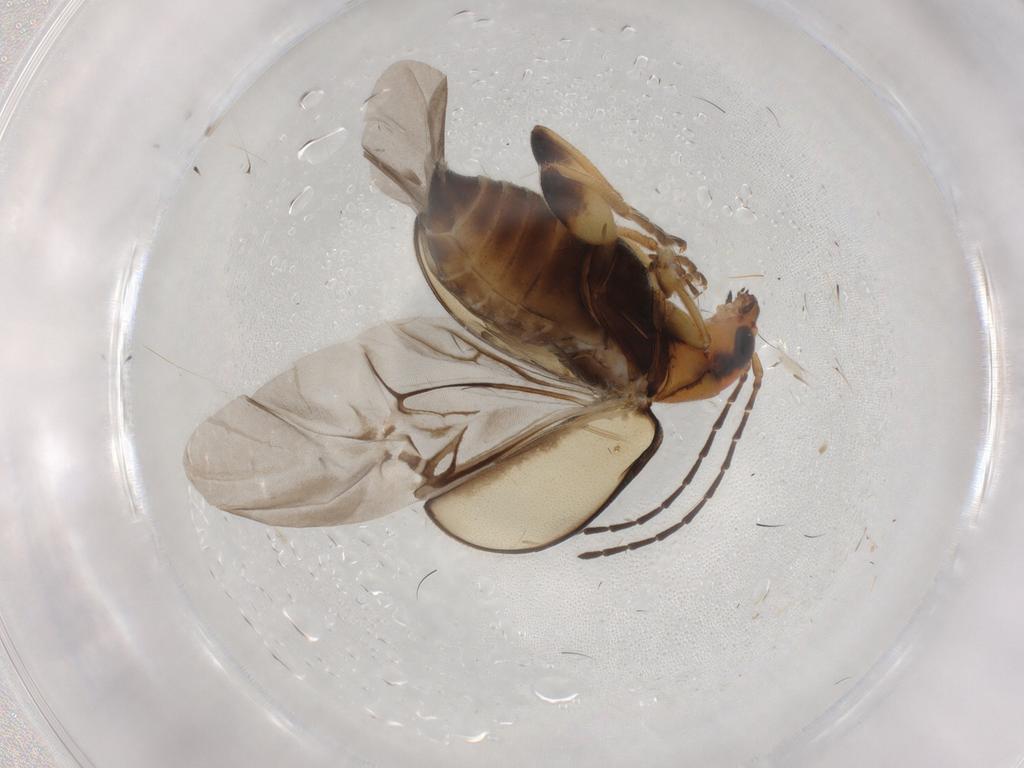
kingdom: Animalia
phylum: Arthropoda
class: Insecta
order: Coleoptera
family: Chrysomelidae
